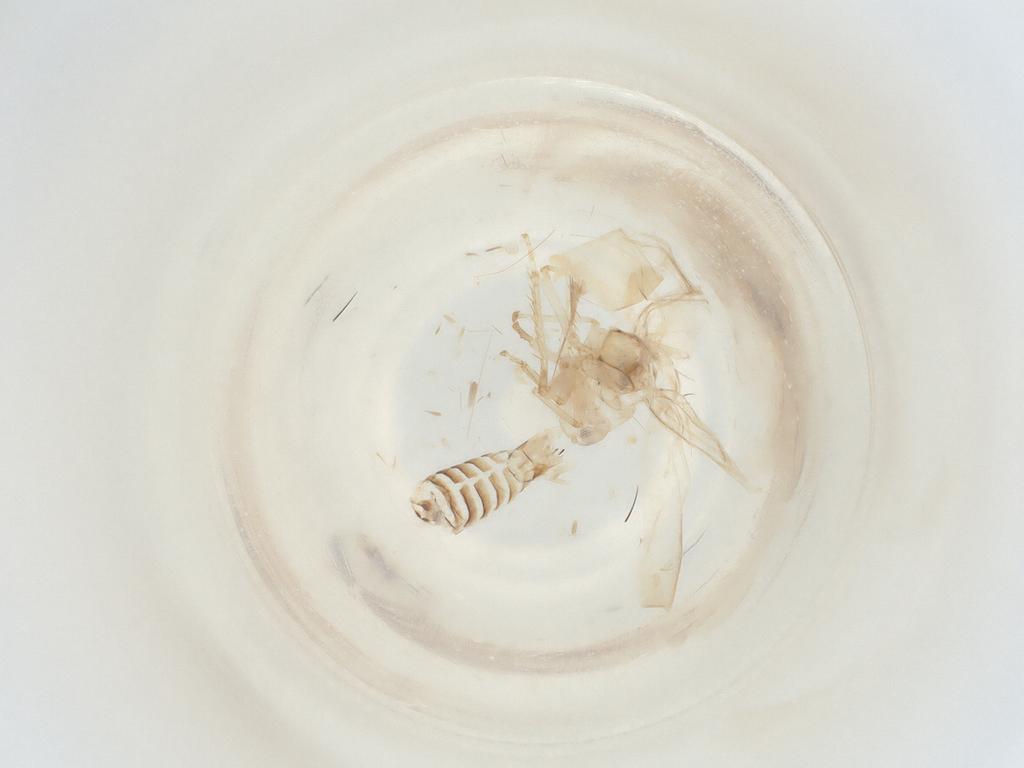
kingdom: Animalia
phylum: Arthropoda
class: Insecta
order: Hemiptera
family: Cicadellidae
